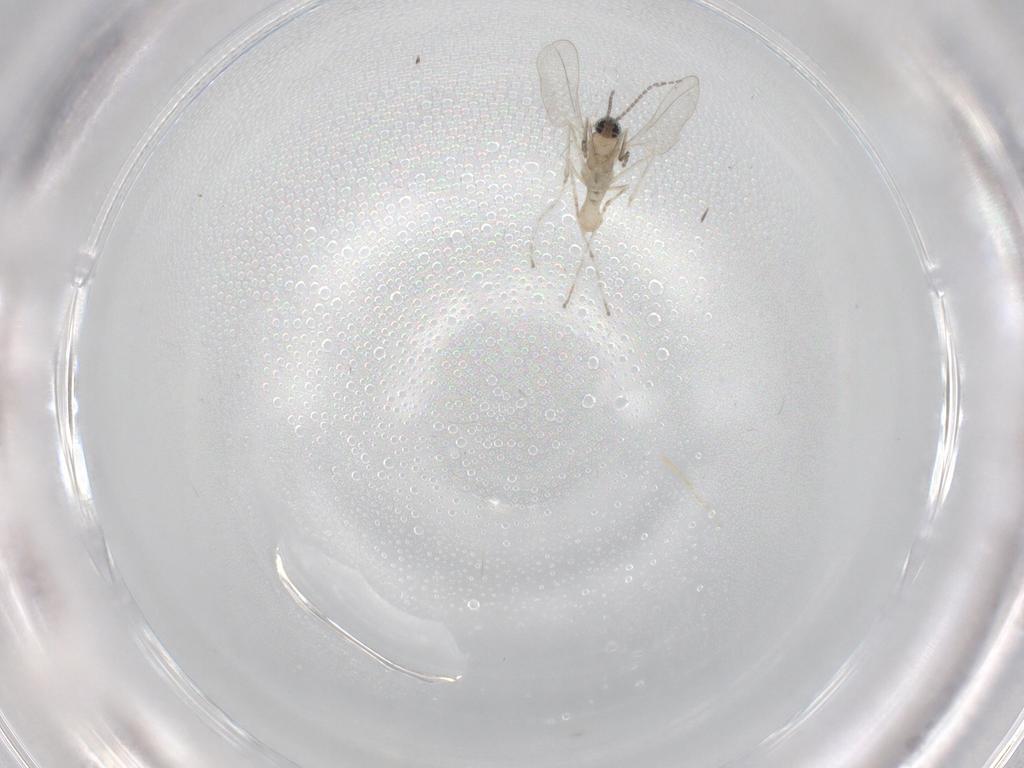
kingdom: Animalia
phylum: Arthropoda
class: Insecta
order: Diptera
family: Cecidomyiidae
